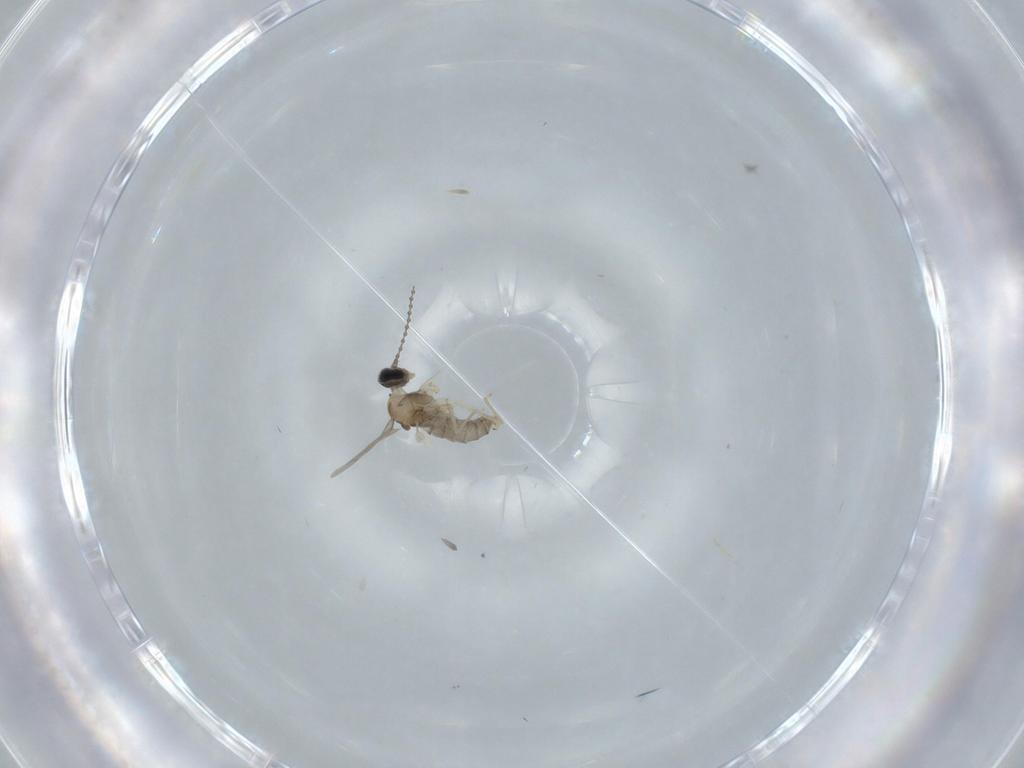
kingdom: Animalia
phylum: Arthropoda
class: Insecta
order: Diptera
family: Cecidomyiidae
